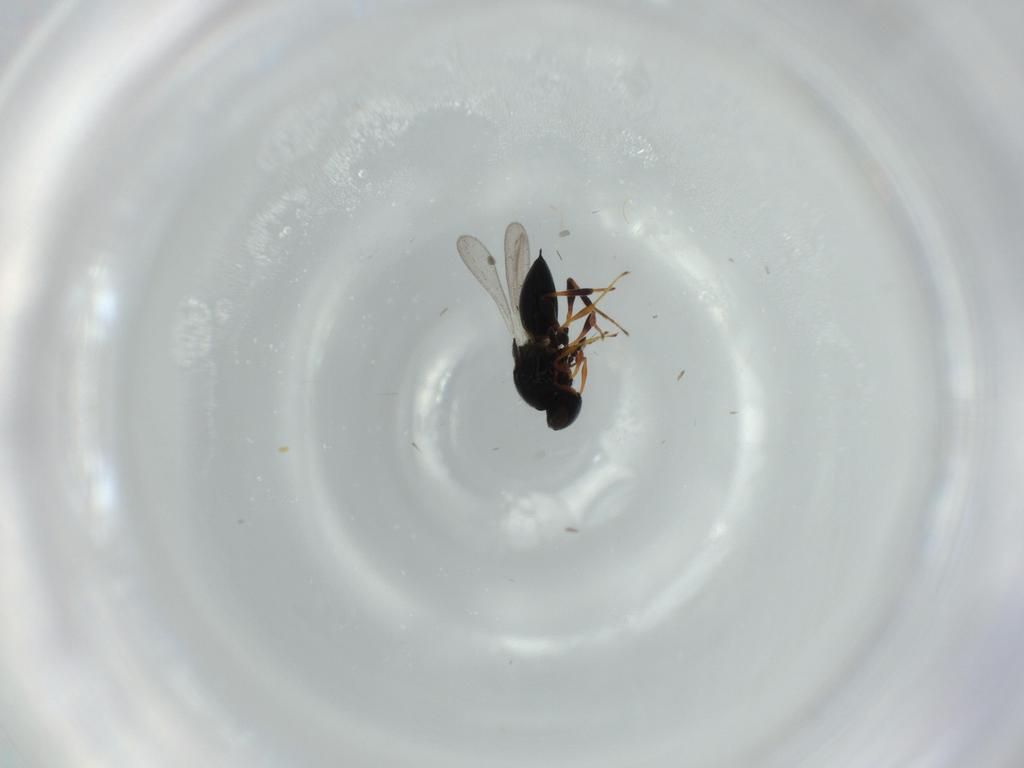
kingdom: Animalia
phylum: Arthropoda
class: Insecta
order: Hymenoptera
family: Platygastridae
